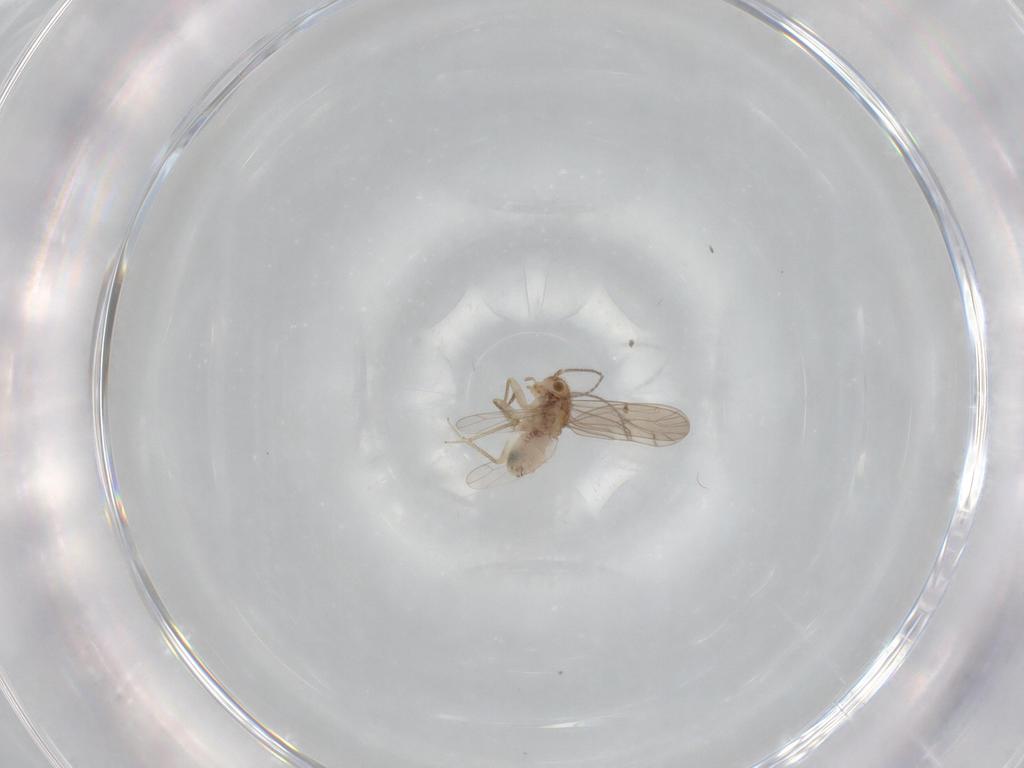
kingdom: Animalia
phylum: Arthropoda
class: Insecta
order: Psocodea
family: Ectopsocidae
